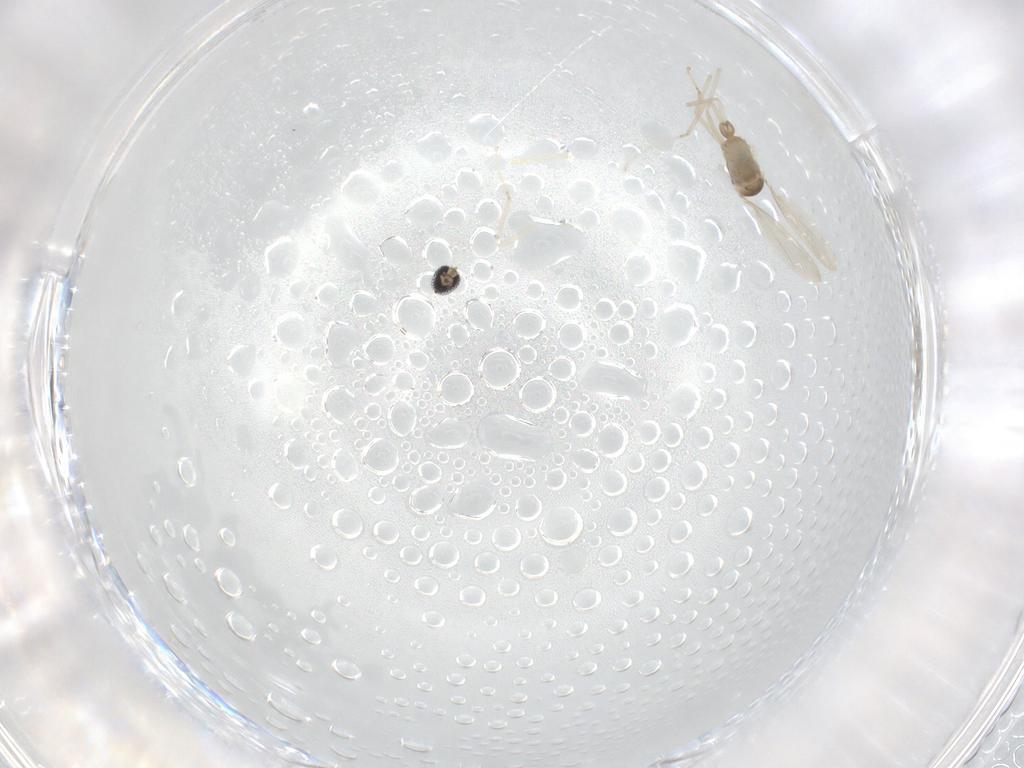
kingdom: Animalia
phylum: Arthropoda
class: Insecta
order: Diptera
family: Cecidomyiidae
